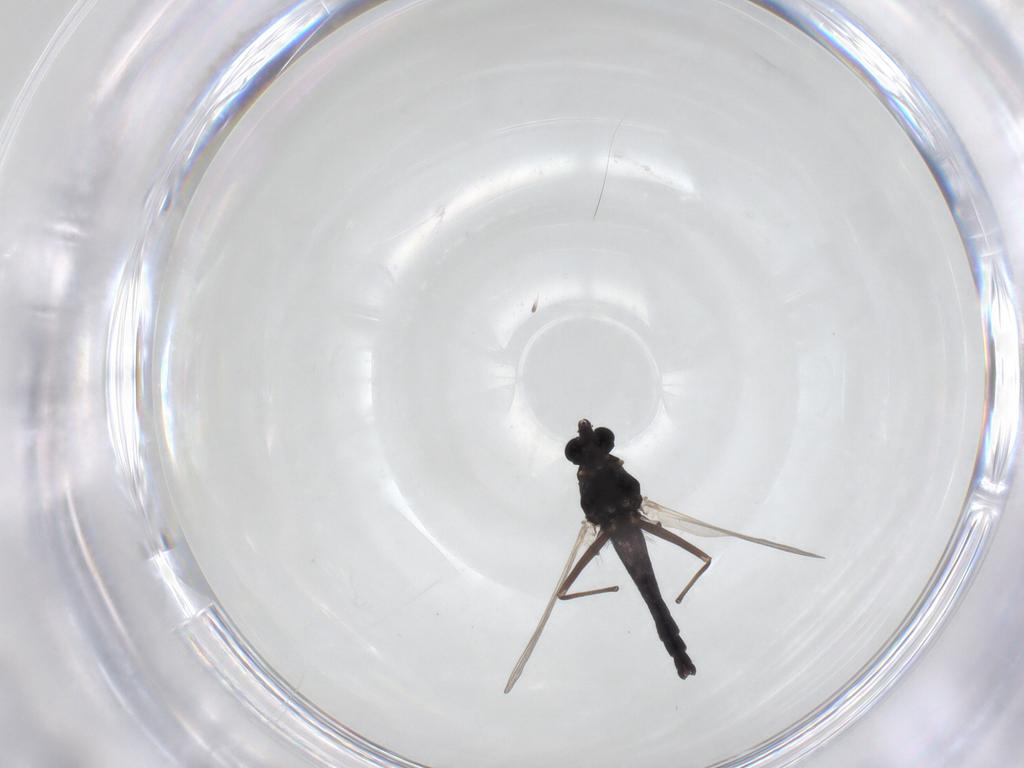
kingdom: Animalia
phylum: Arthropoda
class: Insecta
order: Diptera
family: Chironomidae
